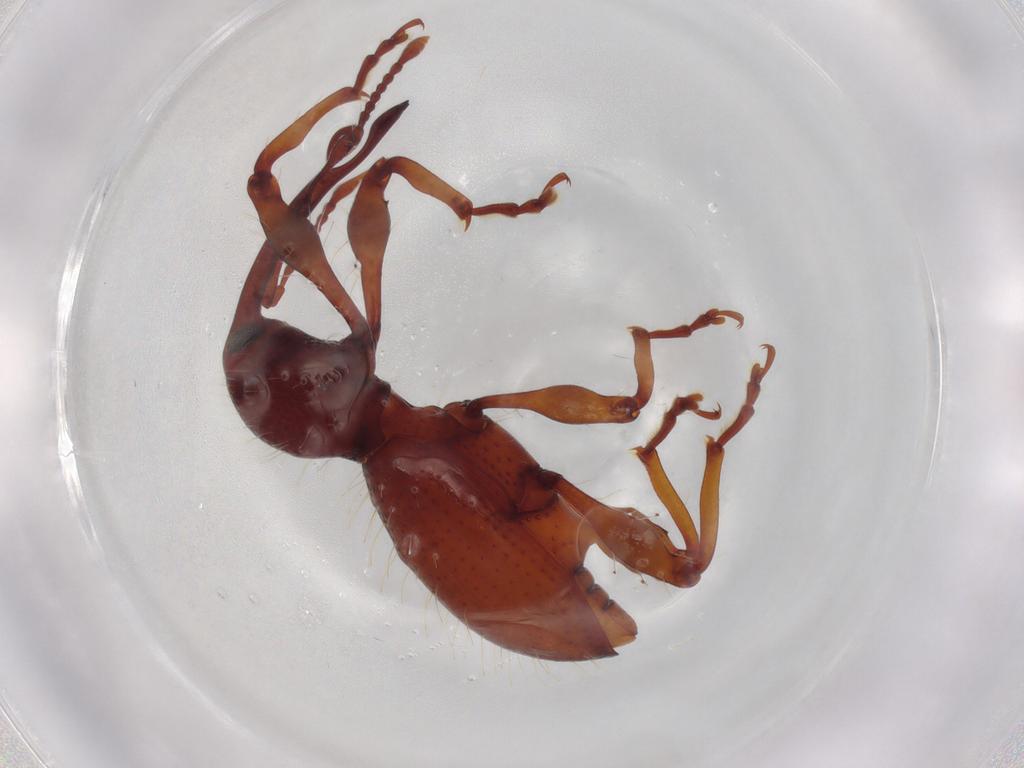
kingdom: Animalia
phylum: Arthropoda
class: Insecta
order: Coleoptera
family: Curculionidae
